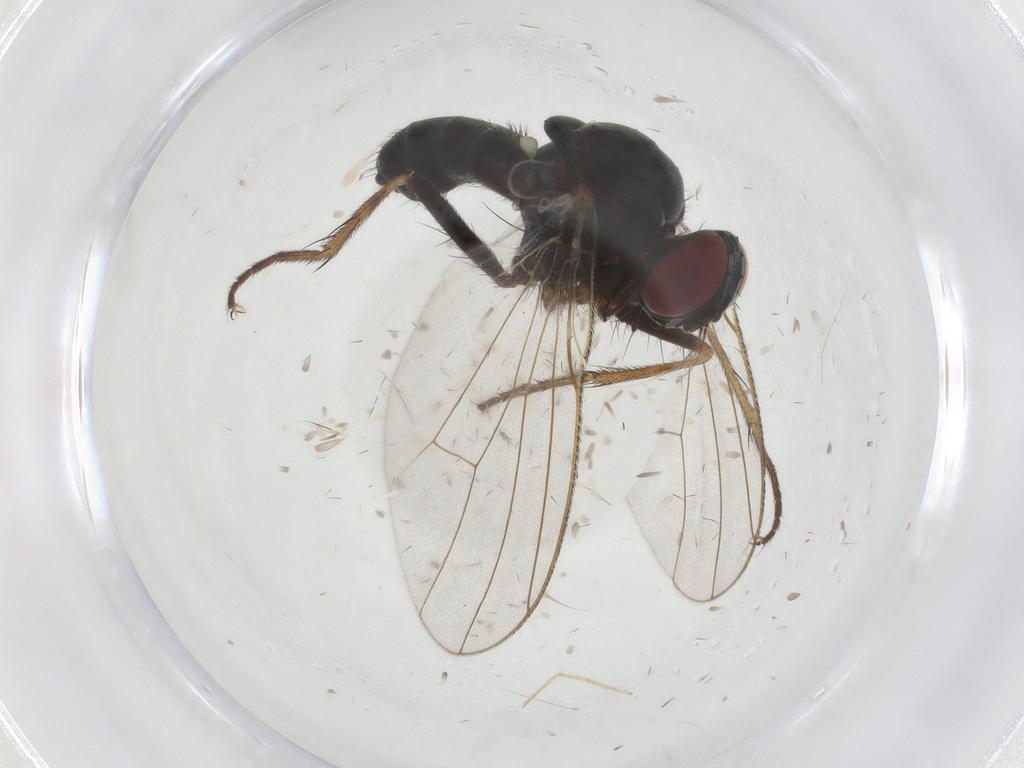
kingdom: Animalia
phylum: Arthropoda
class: Insecta
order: Diptera
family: Chironomidae
